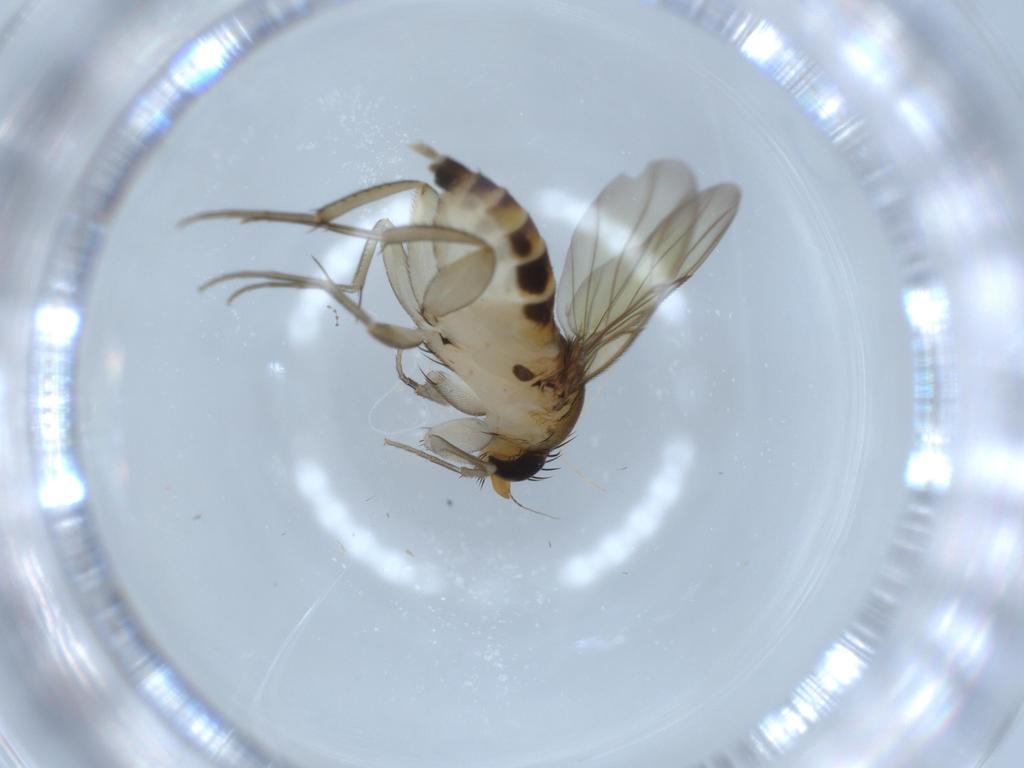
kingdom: Animalia
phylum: Arthropoda
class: Insecta
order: Diptera
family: Phoridae
